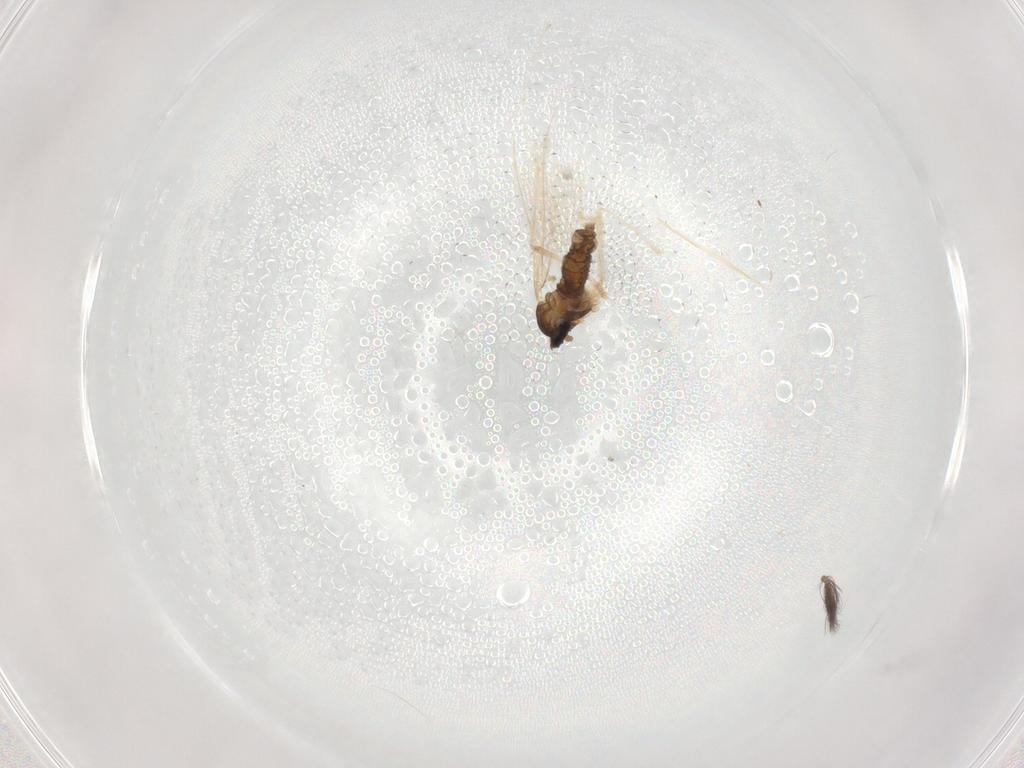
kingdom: Animalia
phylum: Arthropoda
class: Insecta
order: Diptera
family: Cecidomyiidae
